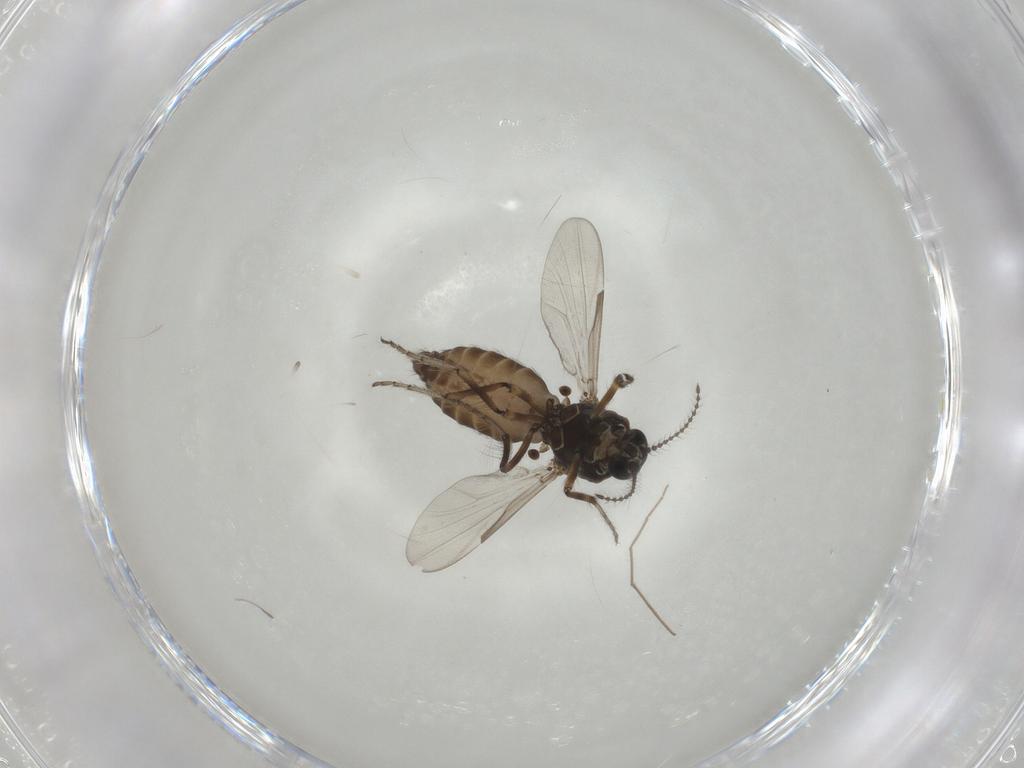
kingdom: Animalia
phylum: Arthropoda
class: Insecta
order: Diptera
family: Ceratopogonidae
